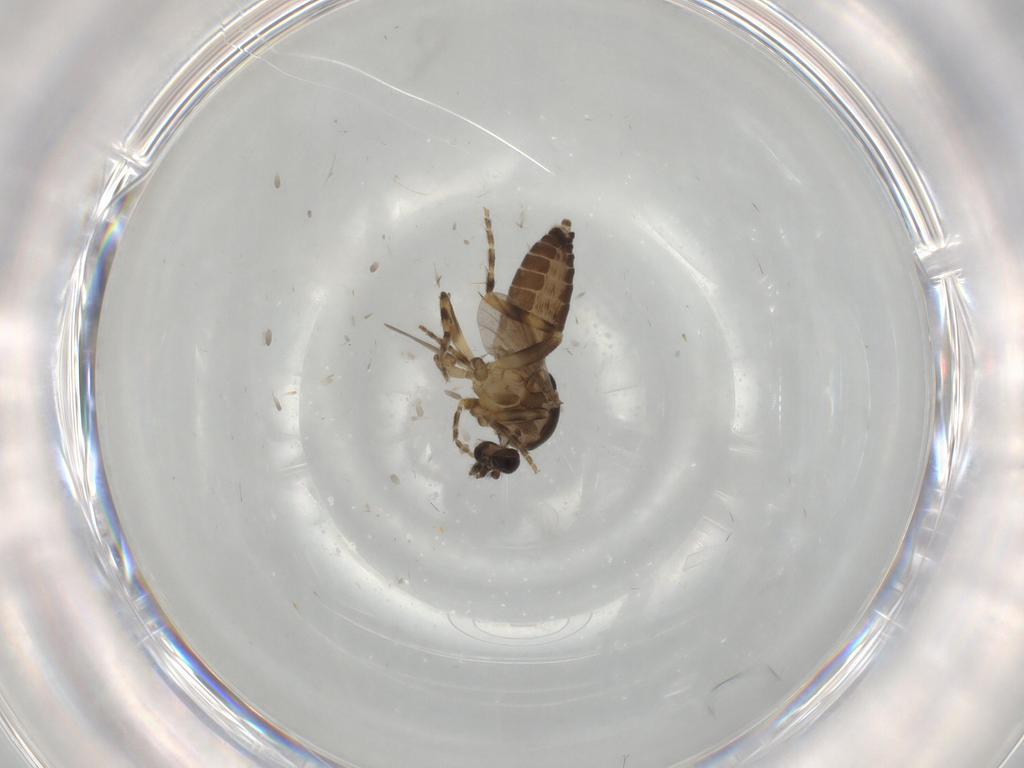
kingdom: Animalia
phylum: Arthropoda
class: Insecta
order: Diptera
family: Ceratopogonidae
